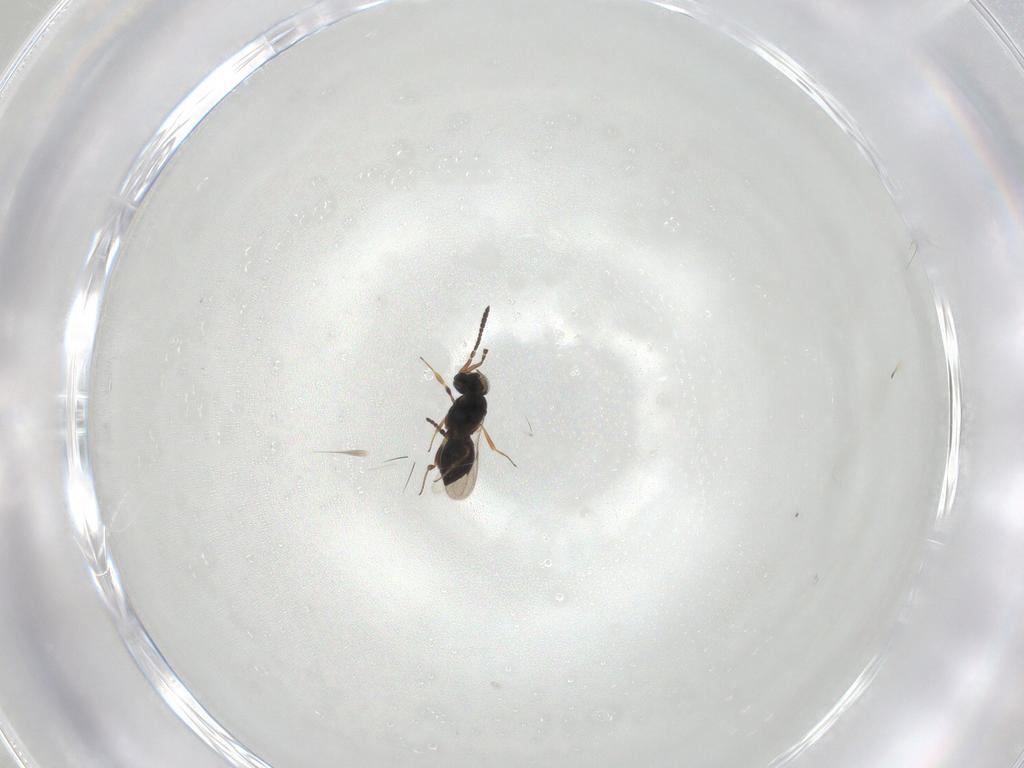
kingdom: Animalia
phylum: Arthropoda
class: Insecta
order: Hymenoptera
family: Scelionidae
